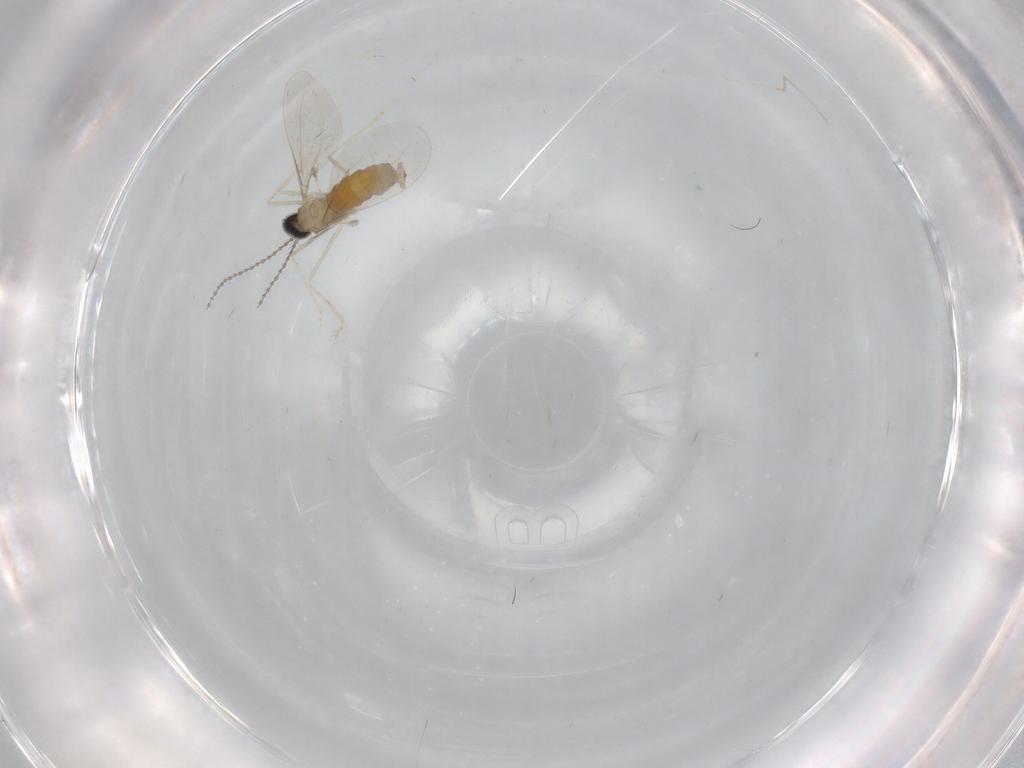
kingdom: Animalia
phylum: Arthropoda
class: Insecta
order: Diptera
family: Cecidomyiidae
